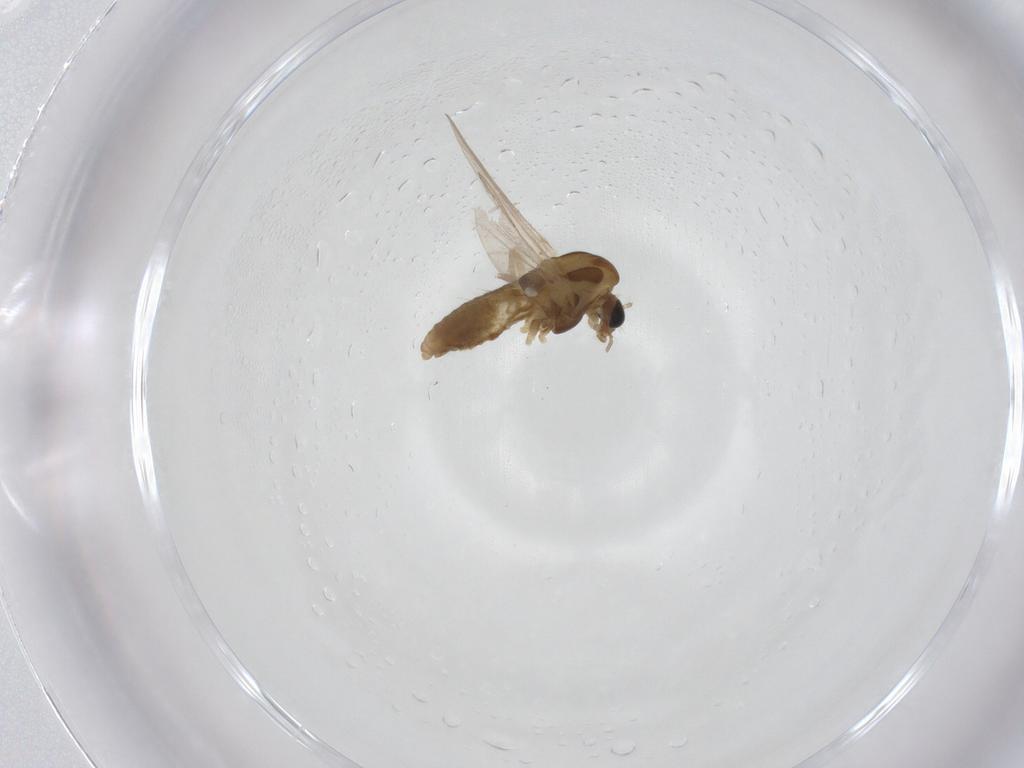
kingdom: Animalia
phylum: Arthropoda
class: Insecta
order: Diptera
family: Chironomidae
